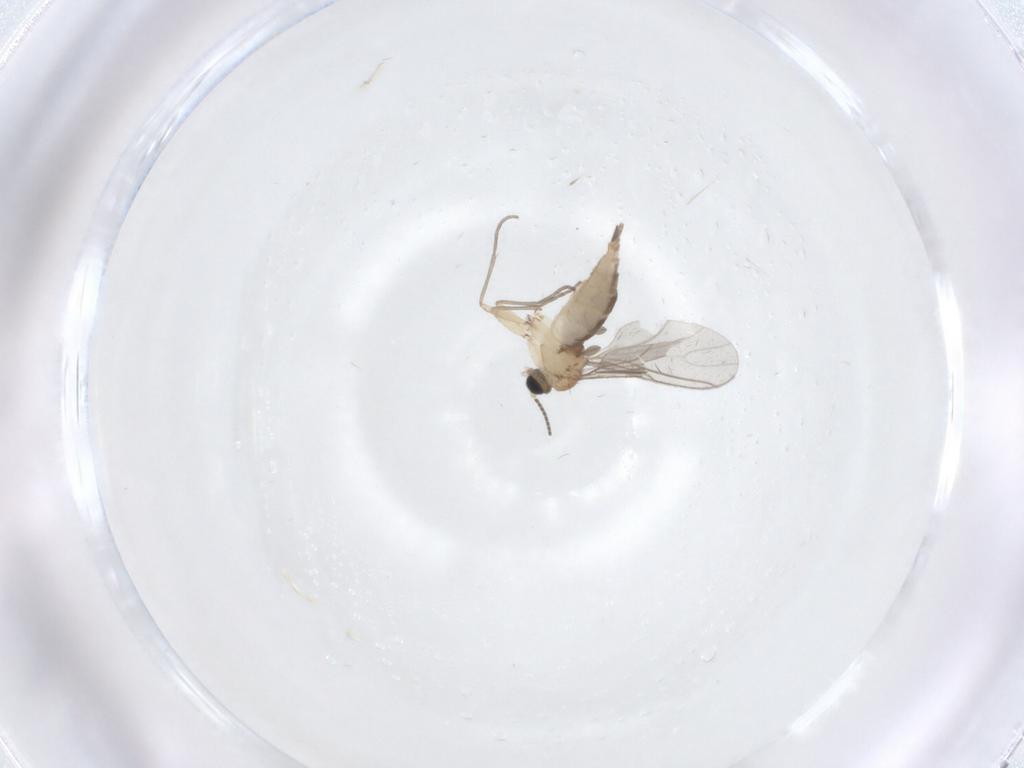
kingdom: Animalia
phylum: Arthropoda
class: Insecta
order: Diptera
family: Sciaridae
